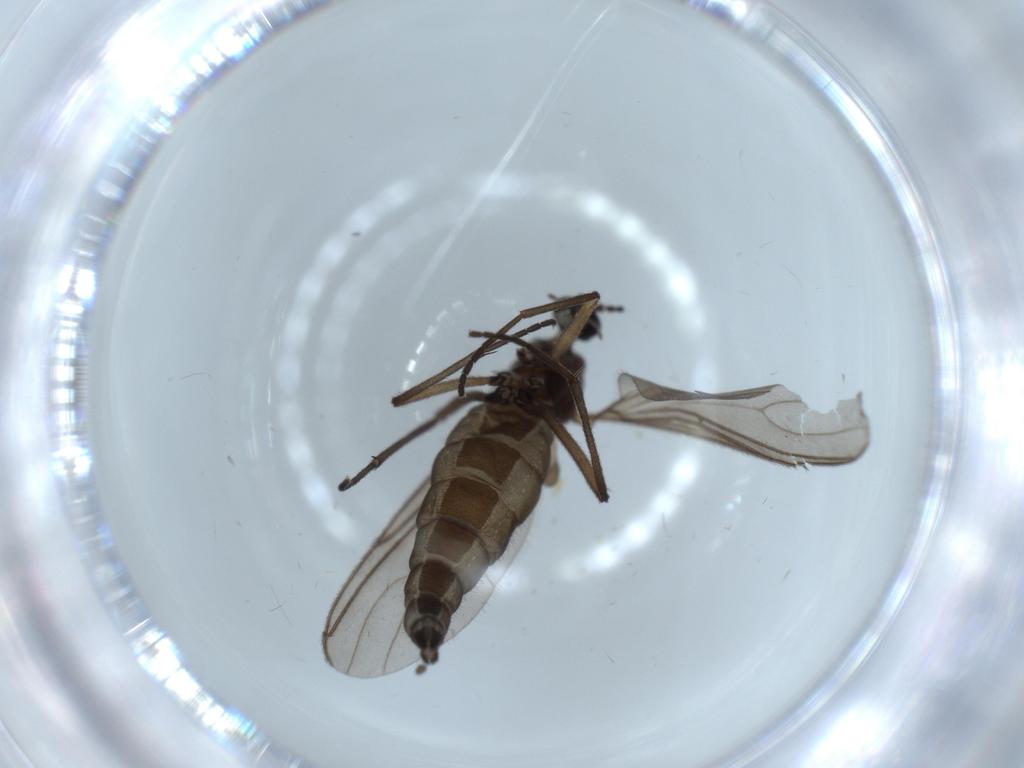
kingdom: Animalia
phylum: Arthropoda
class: Insecta
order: Diptera
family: Sciaridae
